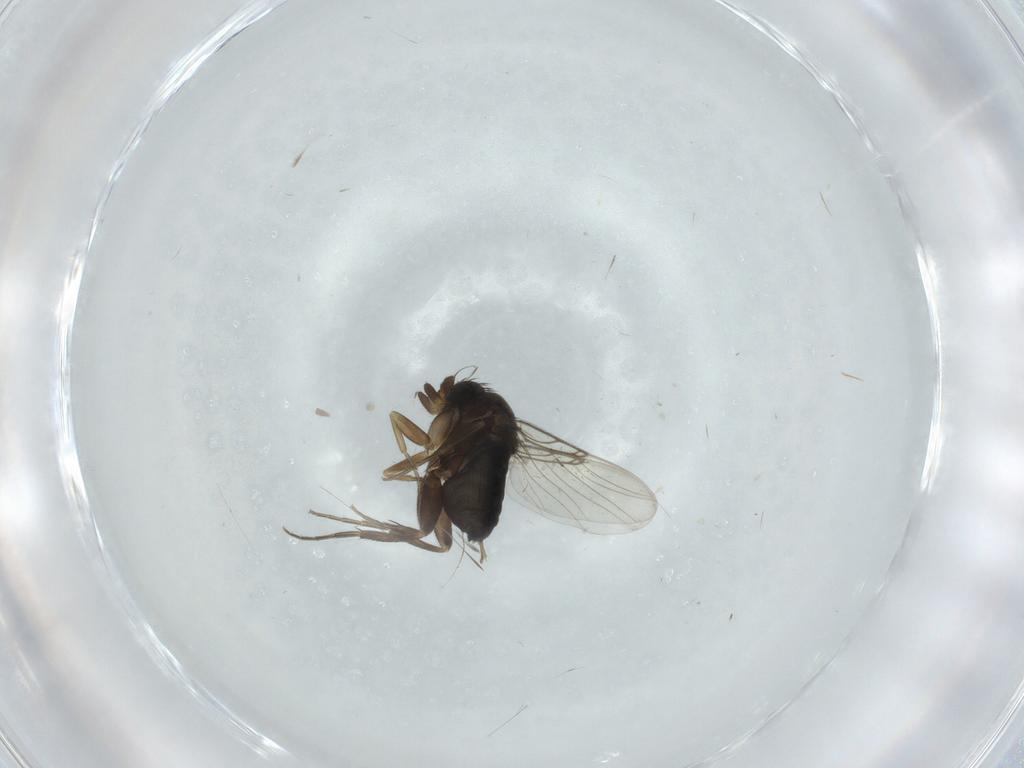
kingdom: Animalia
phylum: Arthropoda
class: Insecta
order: Diptera
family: Phoridae
